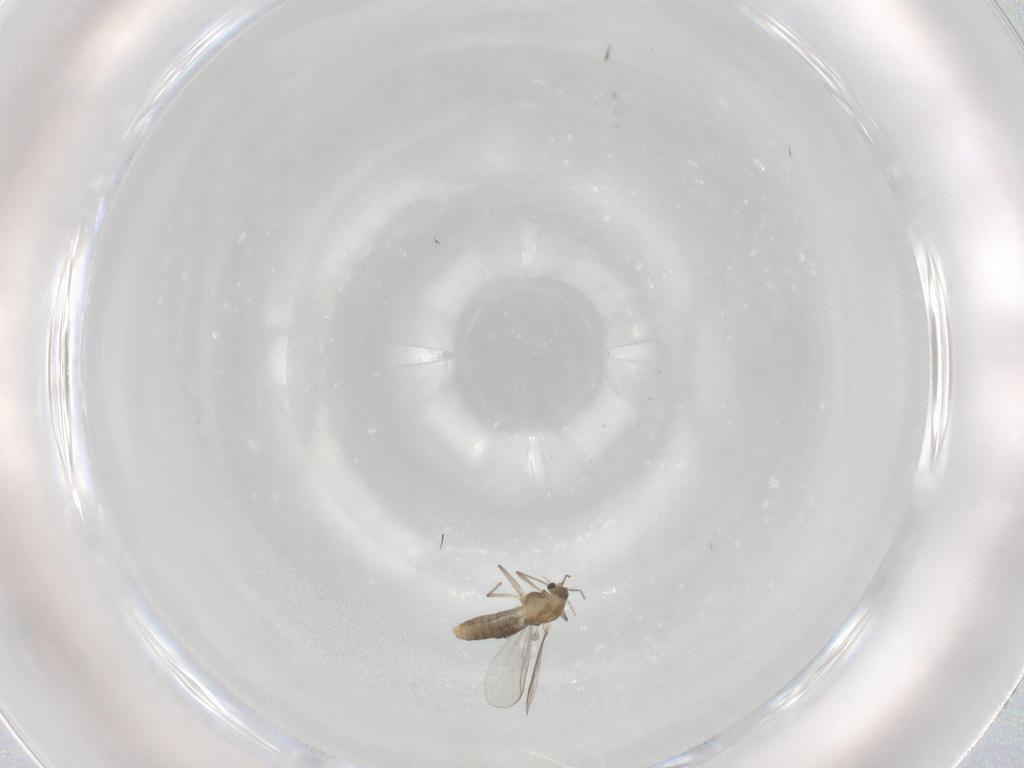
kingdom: Animalia
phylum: Arthropoda
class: Insecta
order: Diptera
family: Chironomidae
